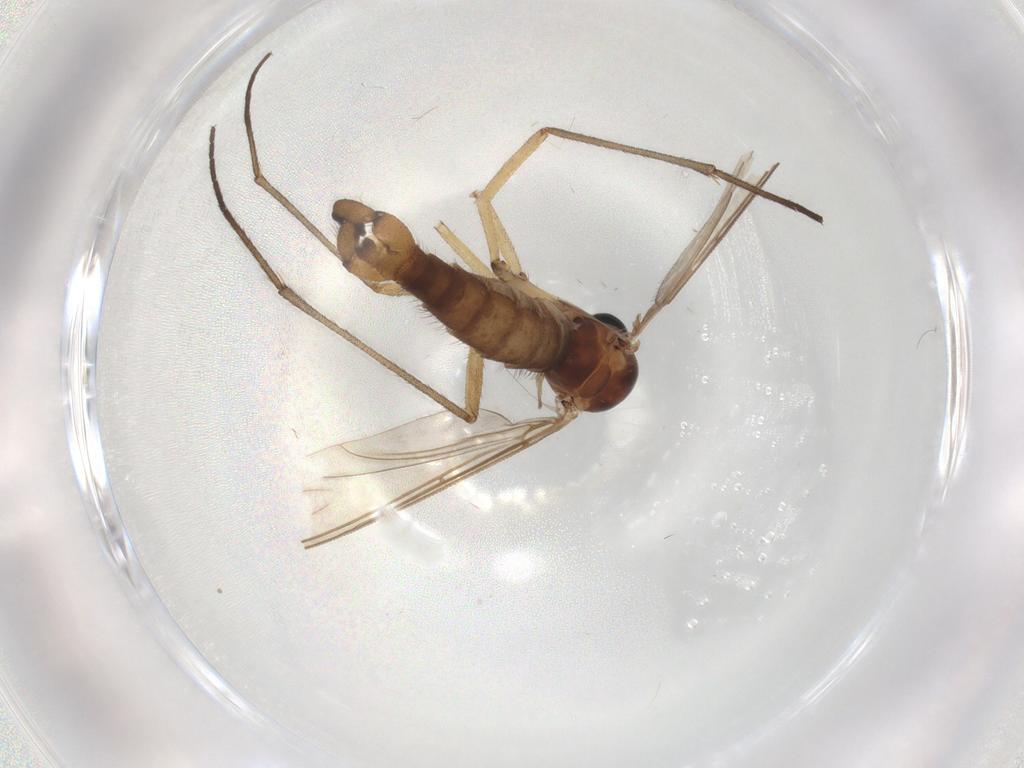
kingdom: Animalia
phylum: Arthropoda
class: Insecta
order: Diptera
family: Sciaridae
